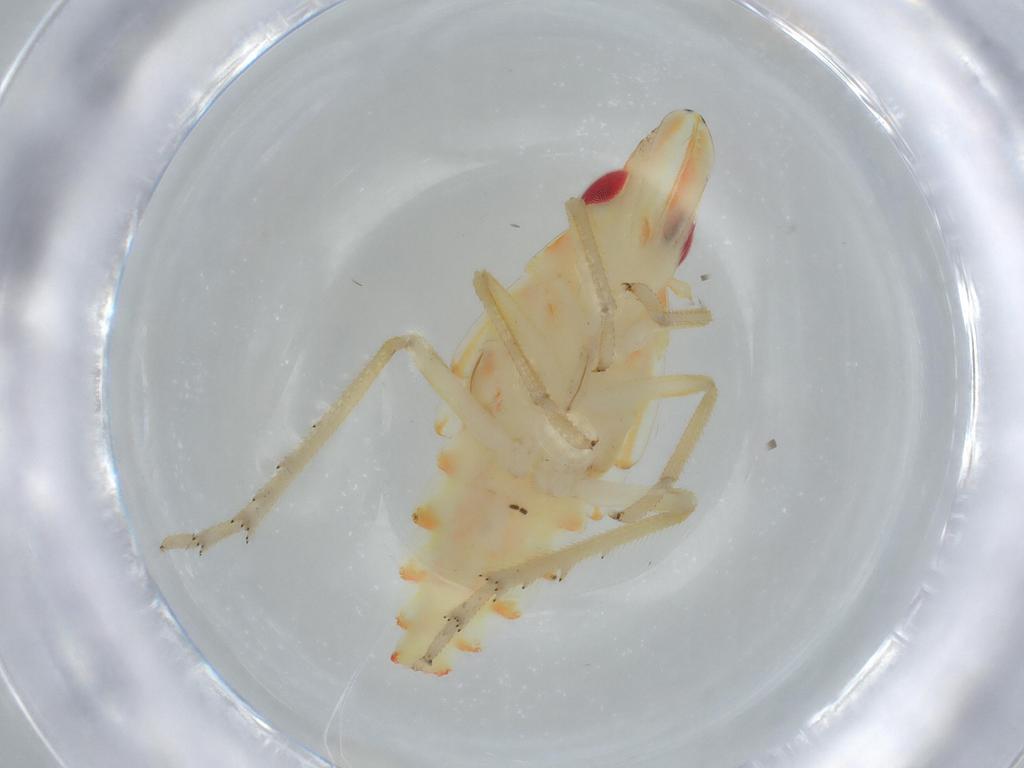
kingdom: Animalia
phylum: Arthropoda
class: Insecta
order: Hemiptera
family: Tropiduchidae
